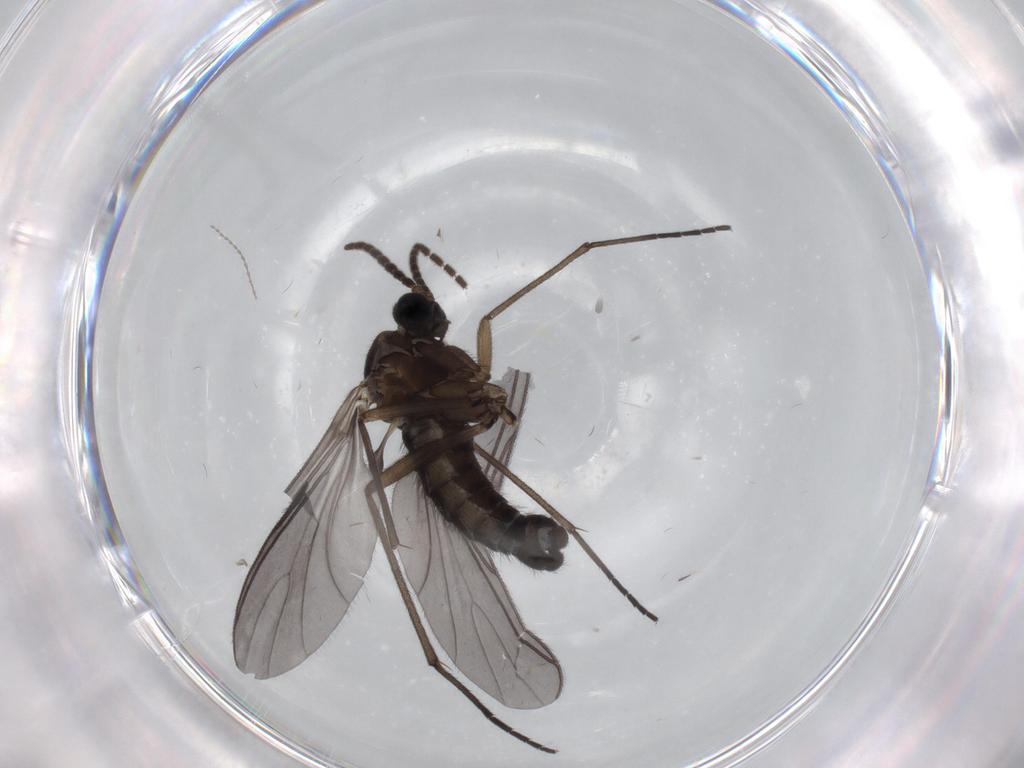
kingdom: Animalia
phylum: Arthropoda
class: Insecta
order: Diptera
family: Sciaridae
